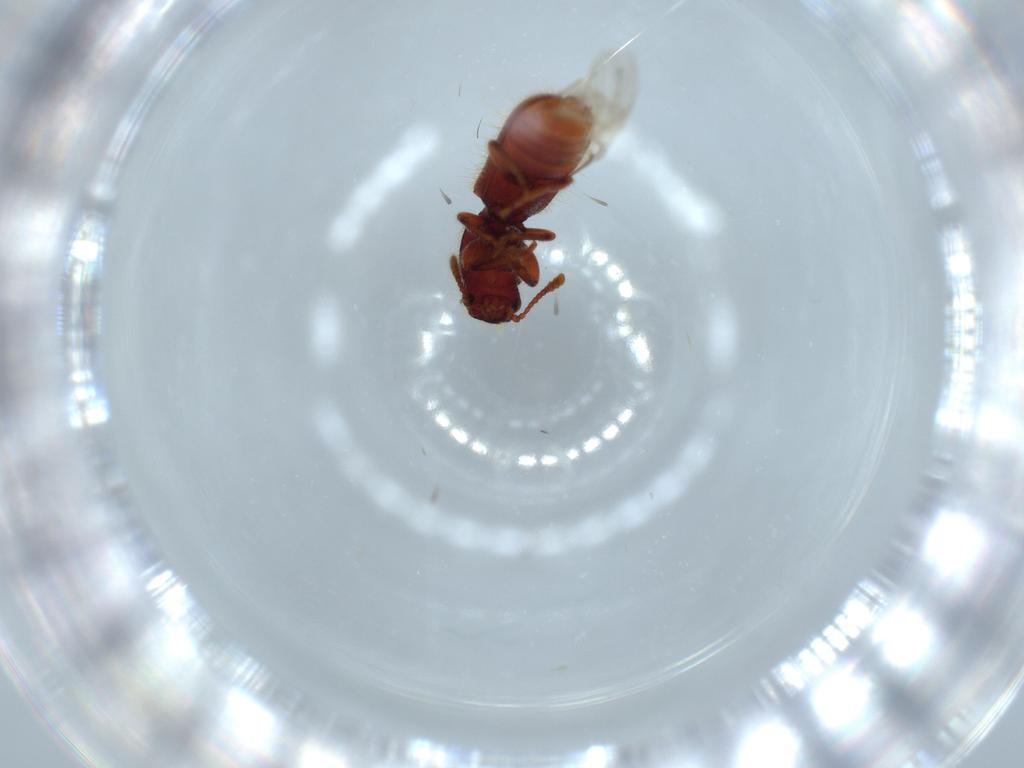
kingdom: Animalia
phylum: Arthropoda
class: Insecta
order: Coleoptera
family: Thanerocleridae
